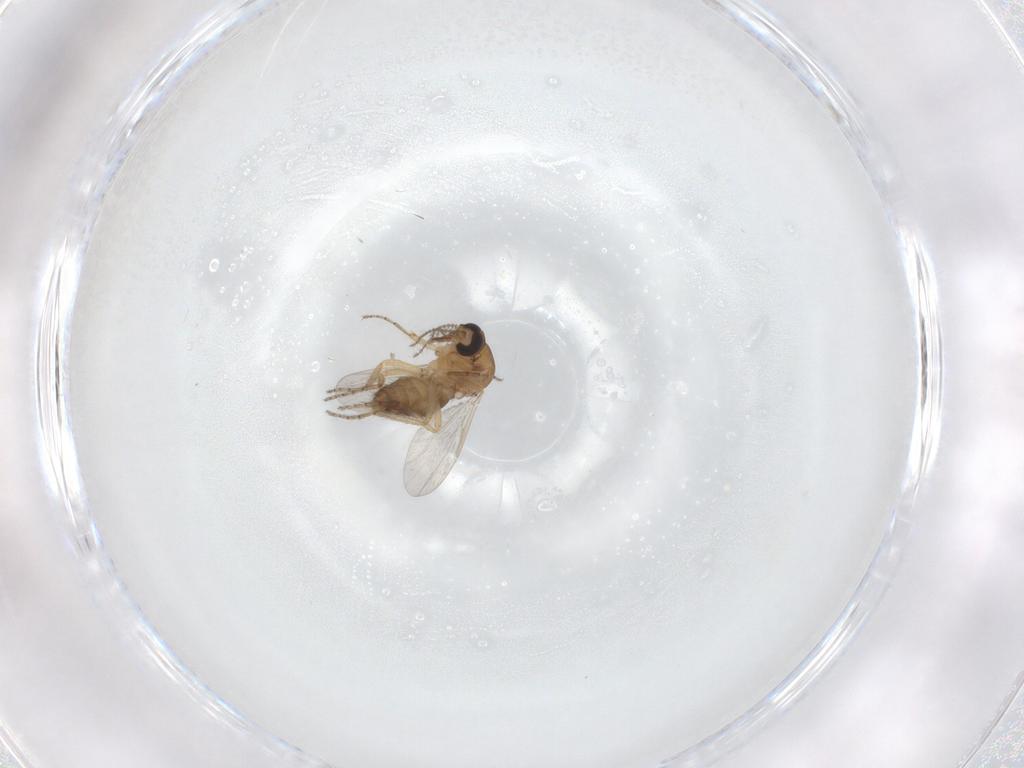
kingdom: Animalia
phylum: Arthropoda
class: Insecta
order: Diptera
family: Ceratopogonidae
